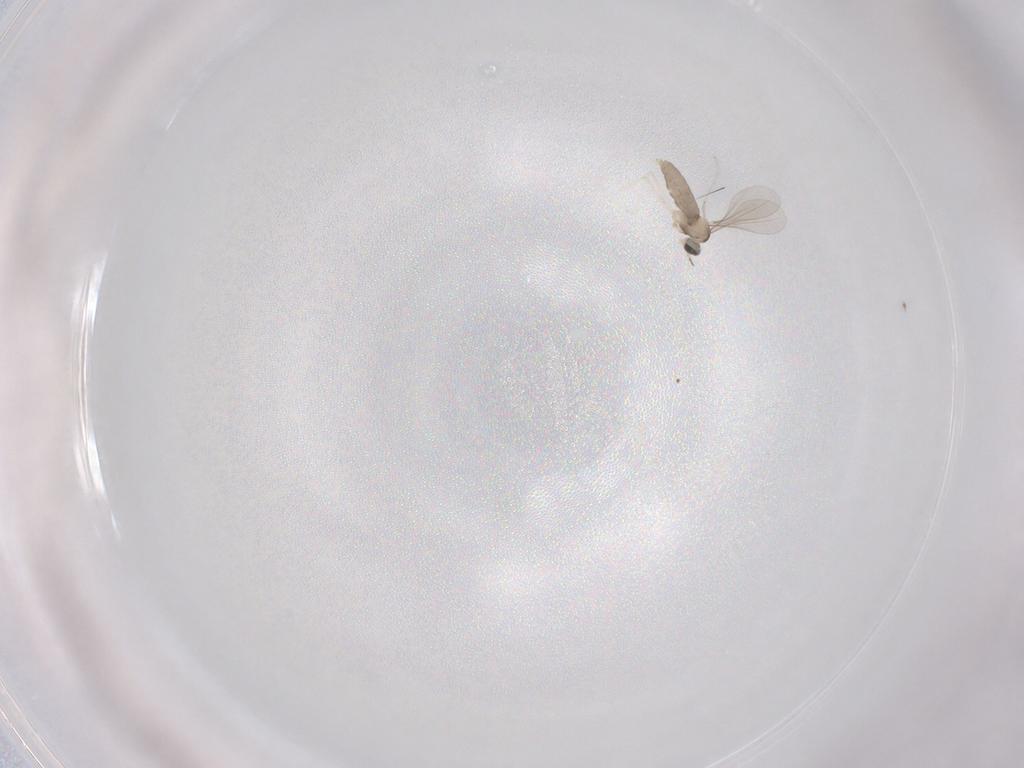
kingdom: Animalia
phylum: Arthropoda
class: Insecta
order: Diptera
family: Cecidomyiidae
